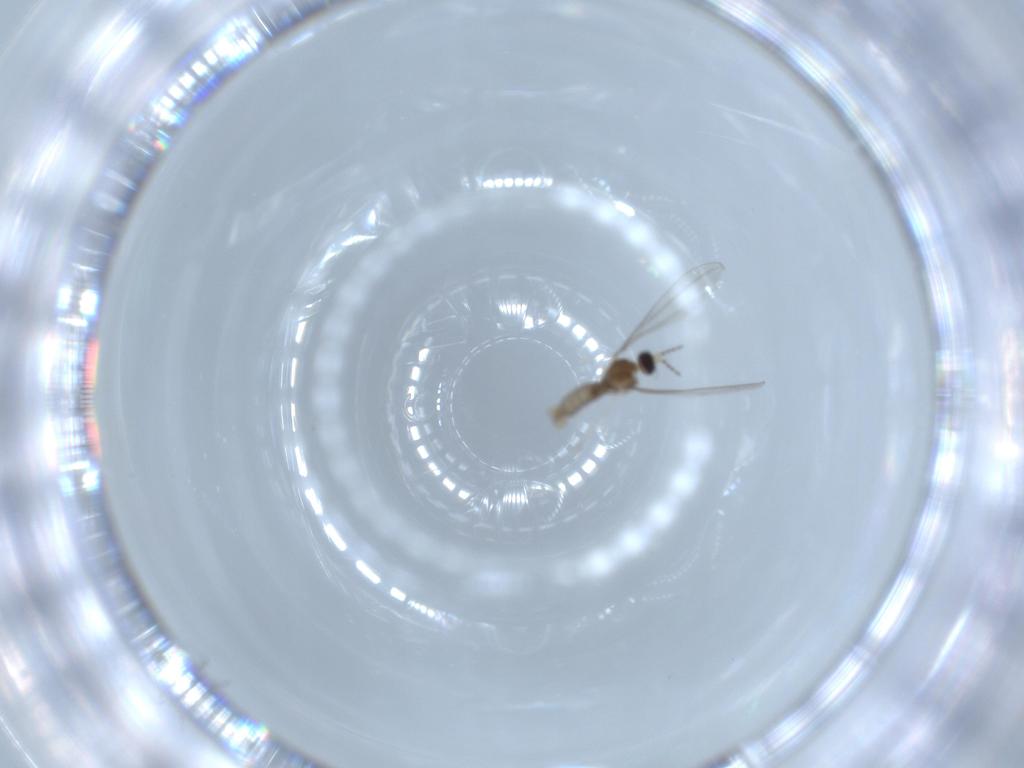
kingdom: Animalia
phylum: Arthropoda
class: Insecta
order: Diptera
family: Cecidomyiidae
